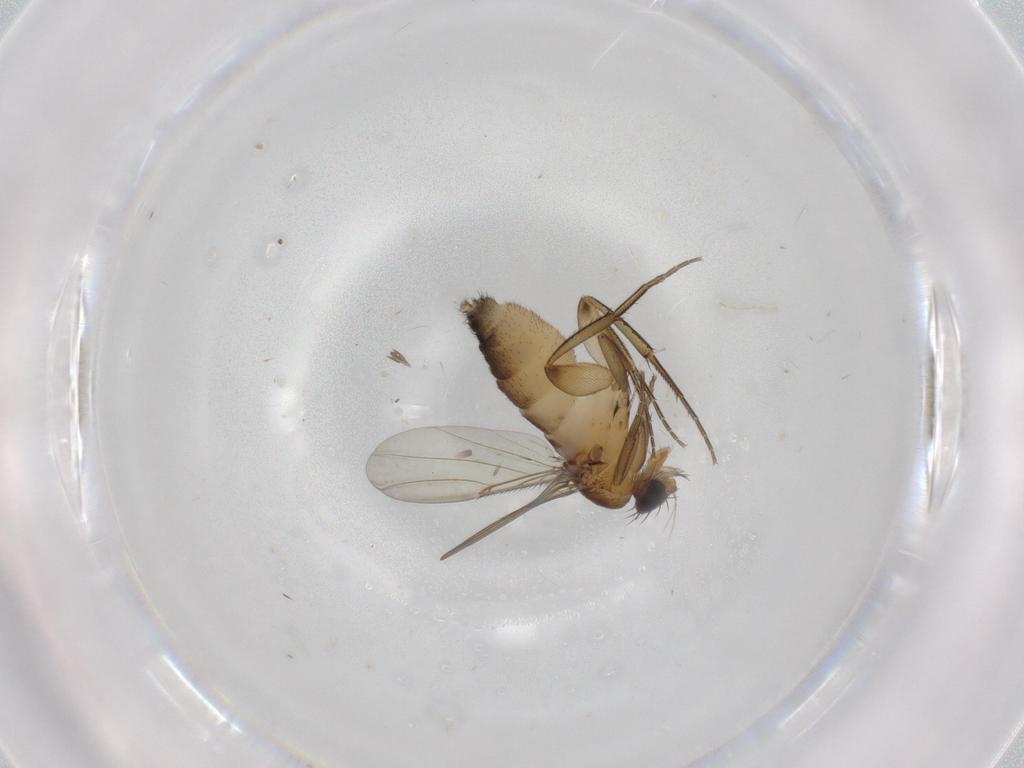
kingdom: Animalia
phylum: Arthropoda
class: Insecta
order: Diptera
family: Phoridae
